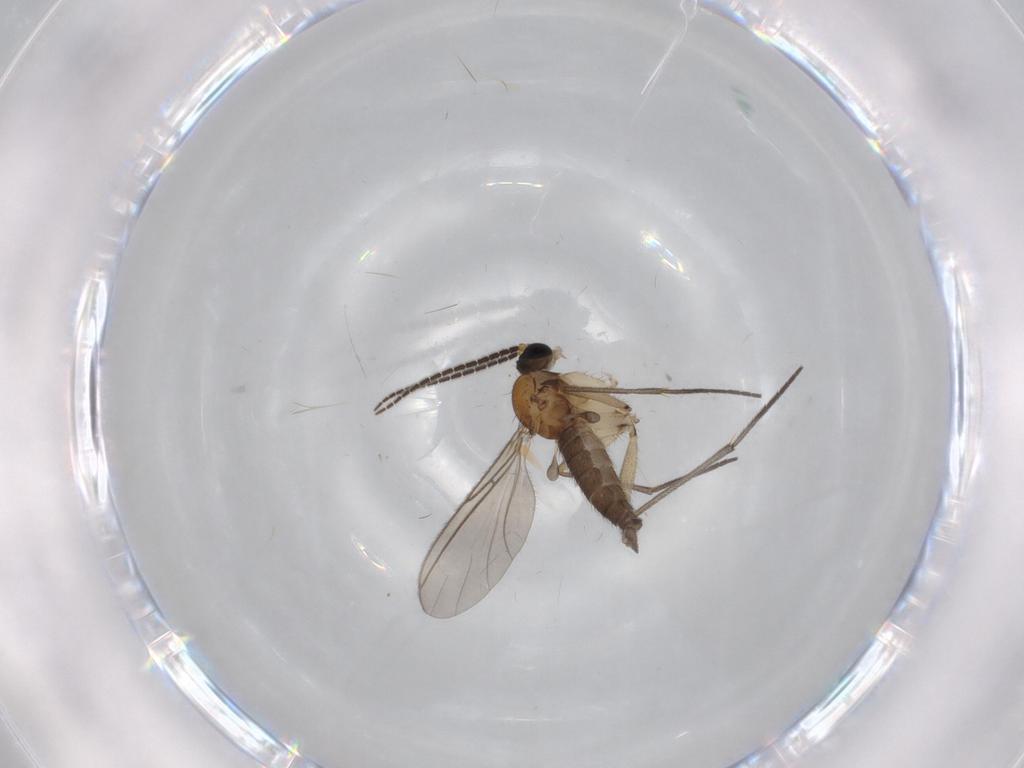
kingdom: Animalia
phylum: Arthropoda
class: Insecta
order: Diptera
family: Sciaridae
